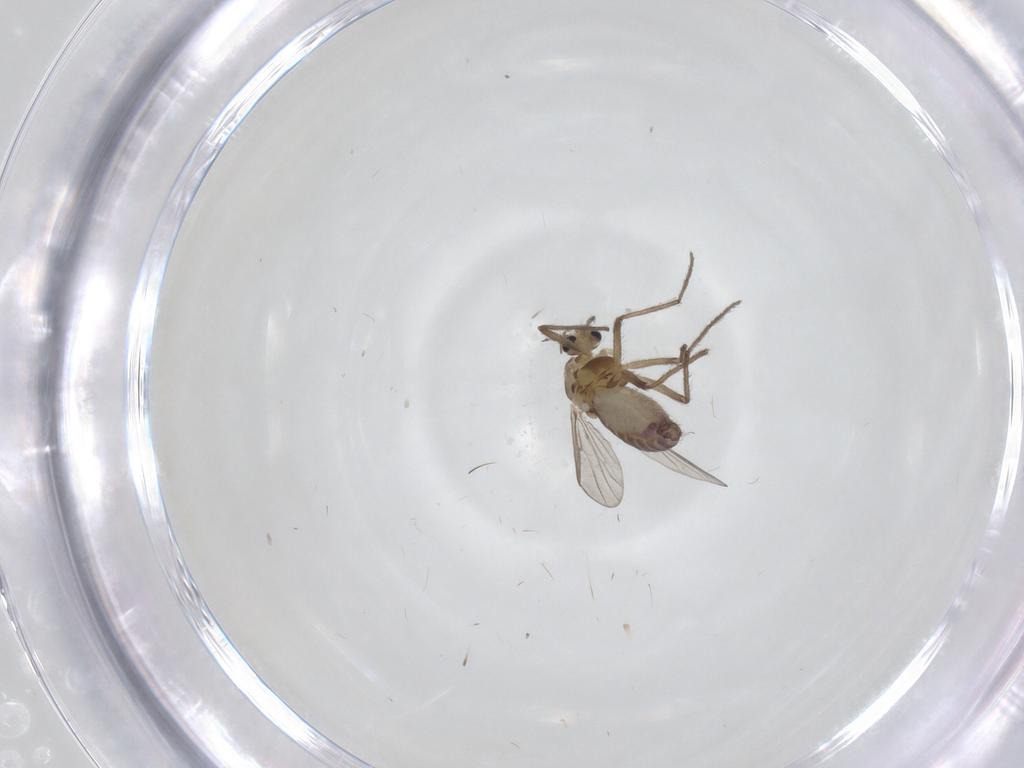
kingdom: Animalia
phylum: Arthropoda
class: Insecta
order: Diptera
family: Chironomidae
